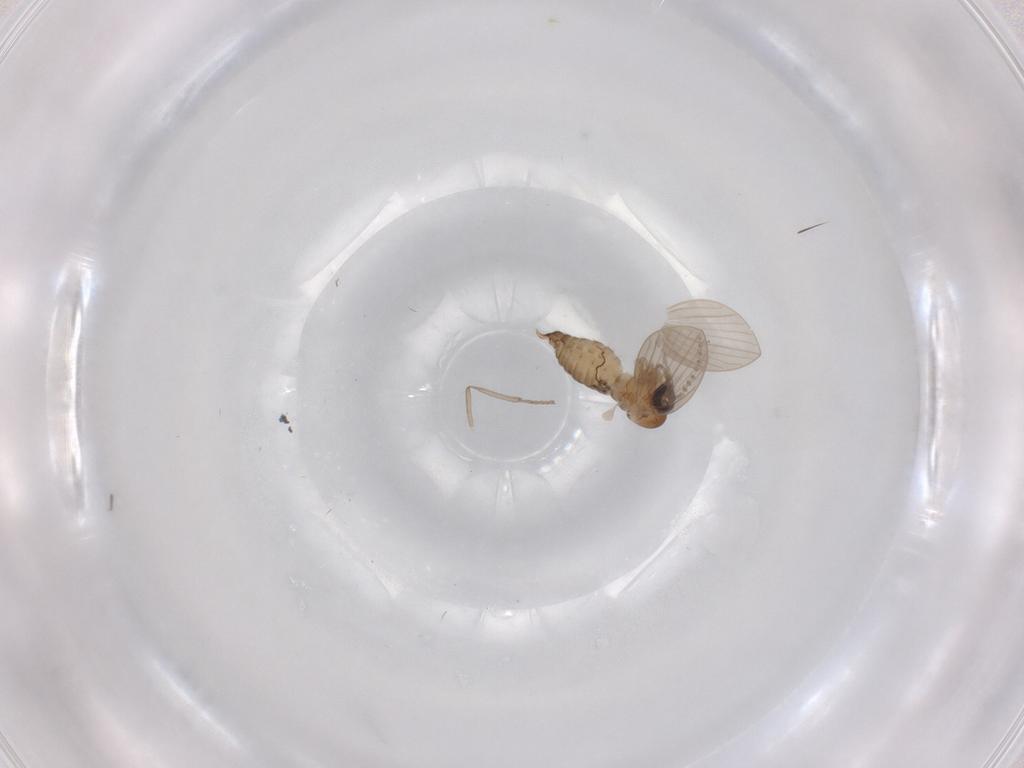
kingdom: Animalia
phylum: Arthropoda
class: Insecta
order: Diptera
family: Psychodidae
